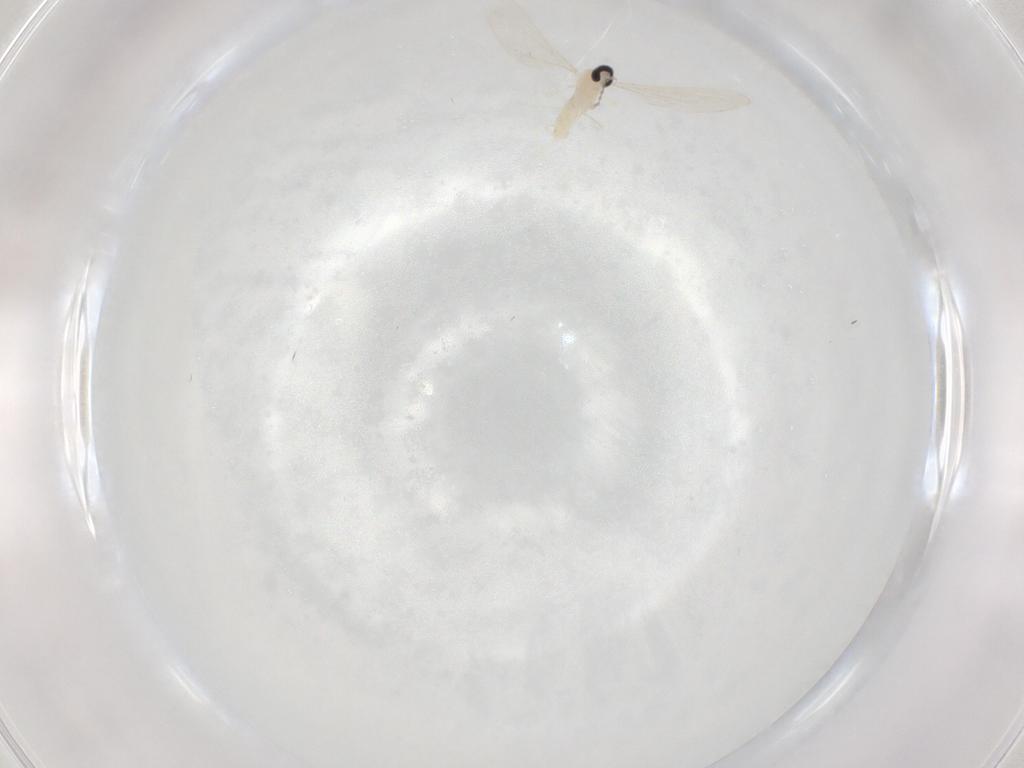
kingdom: Animalia
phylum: Arthropoda
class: Insecta
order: Diptera
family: Cecidomyiidae
